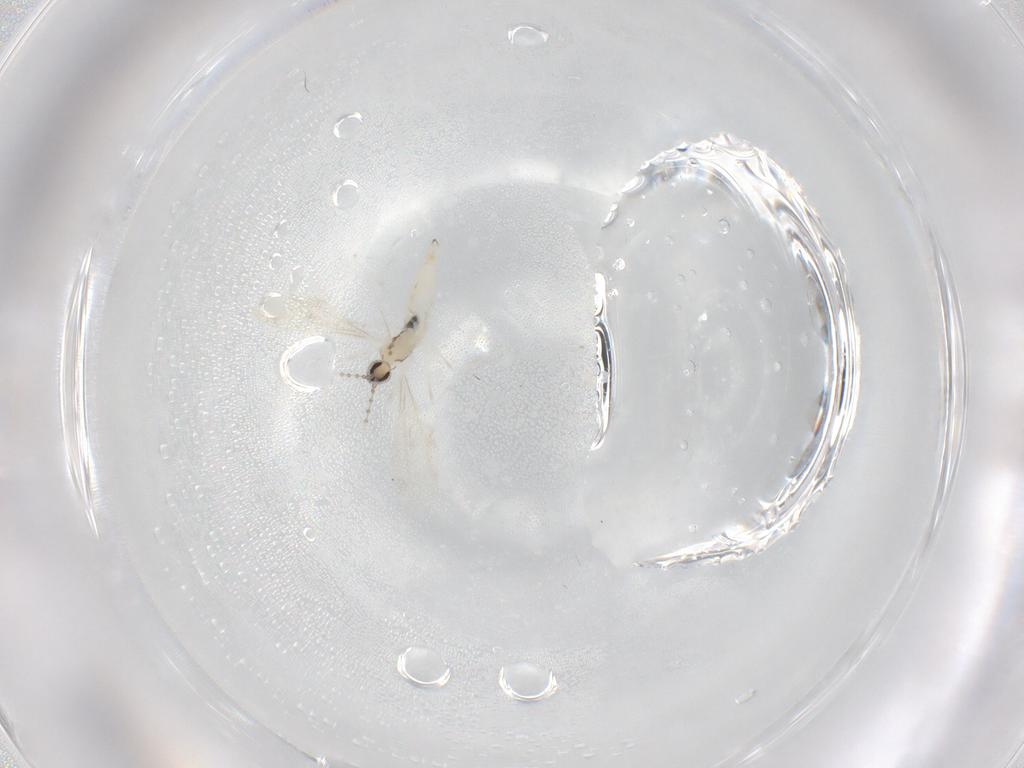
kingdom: Animalia
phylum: Arthropoda
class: Insecta
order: Diptera
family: Cecidomyiidae
